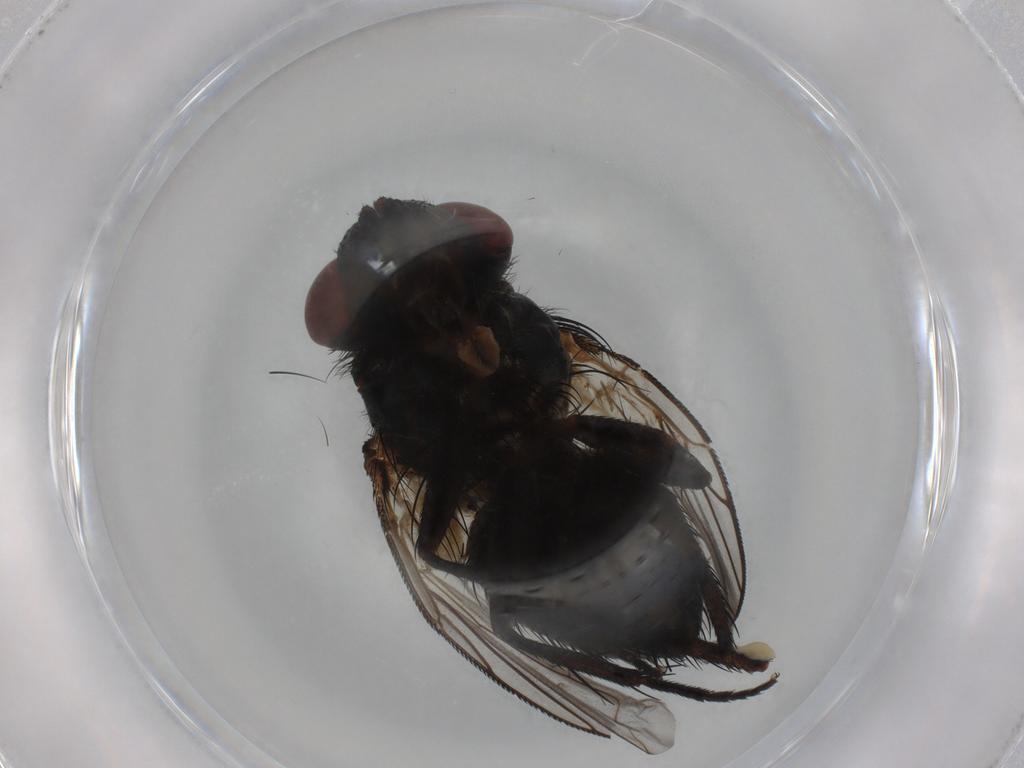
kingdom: Animalia
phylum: Arthropoda
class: Insecta
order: Diptera
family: Tachinidae
